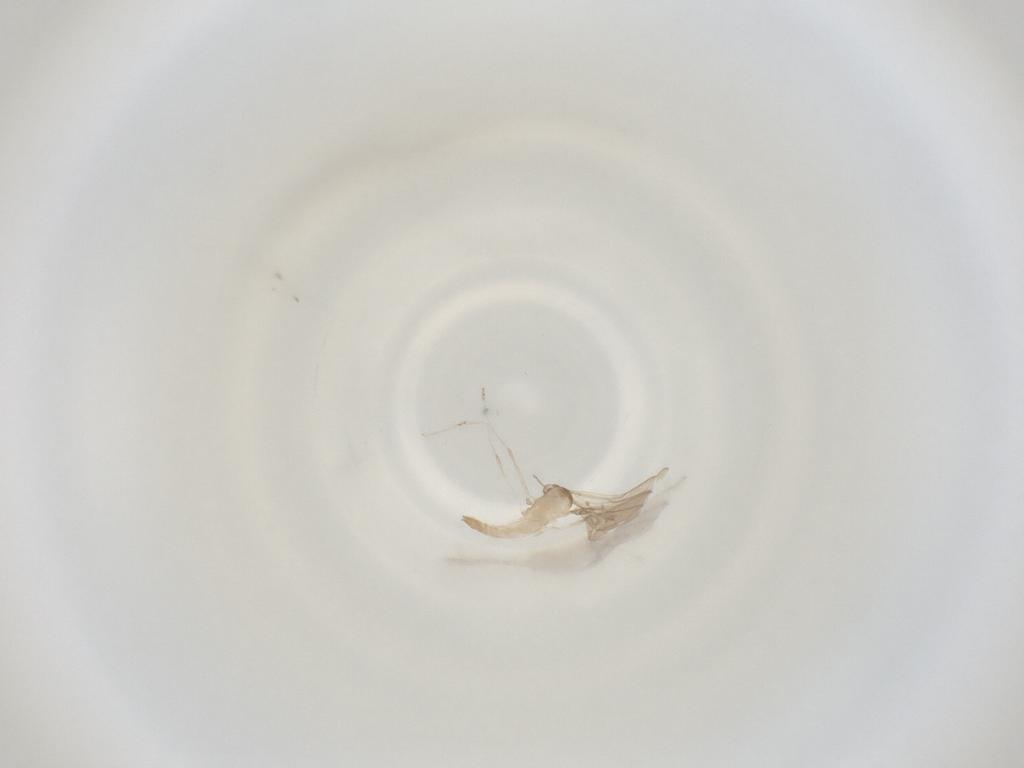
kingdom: Animalia
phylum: Arthropoda
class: Insecta
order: Diptera
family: Cecidomyiidae
